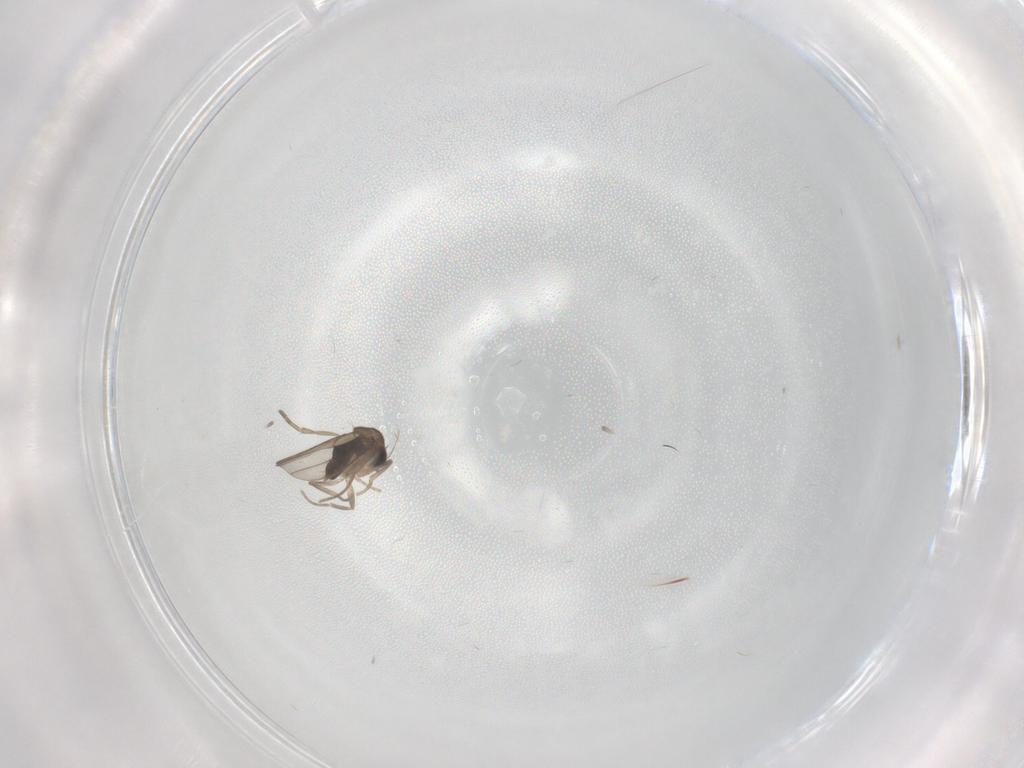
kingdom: Animalia
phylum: Arthropoda
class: Insecta
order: Diptera
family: Phoridae
